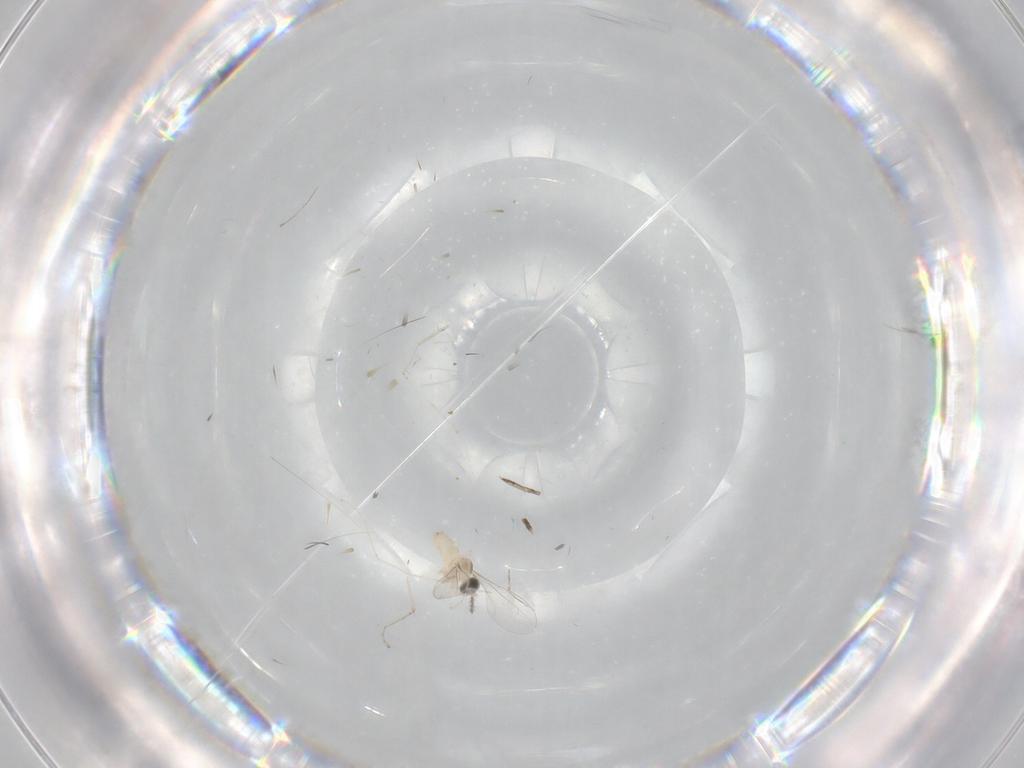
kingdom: Animalia
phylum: Arthropoda
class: Insecta
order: Diptera
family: Cecidomyiidae
